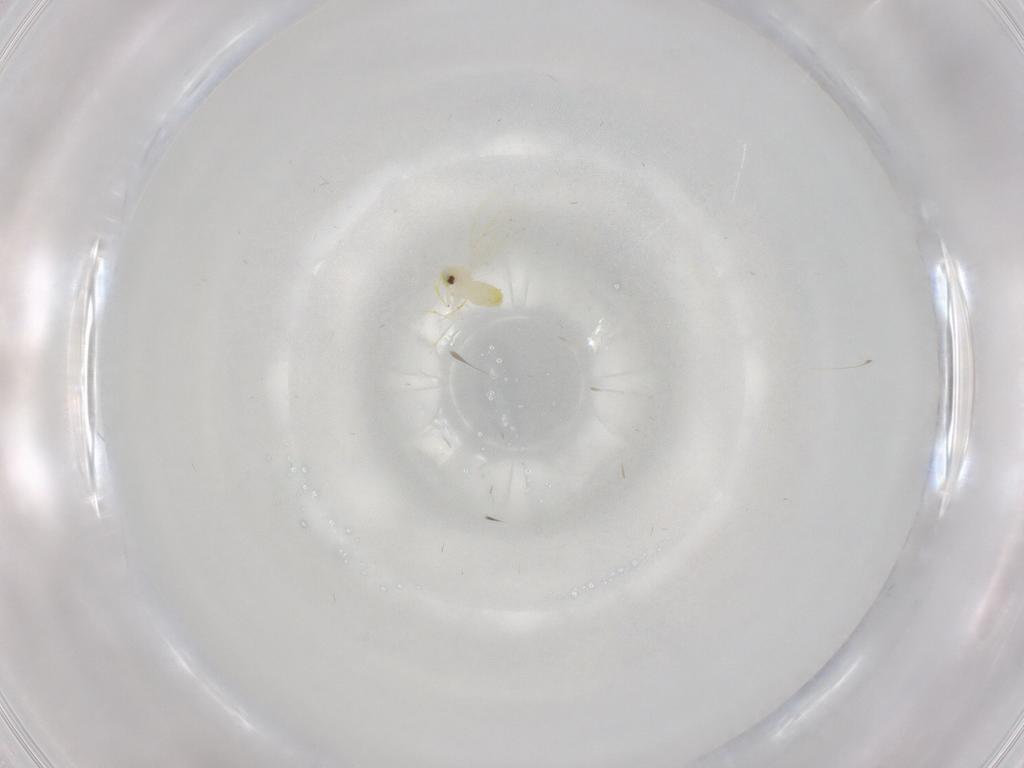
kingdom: Animalia
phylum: Arthropoda
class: Insecta
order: Hemiptera
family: Aleyrodidae
